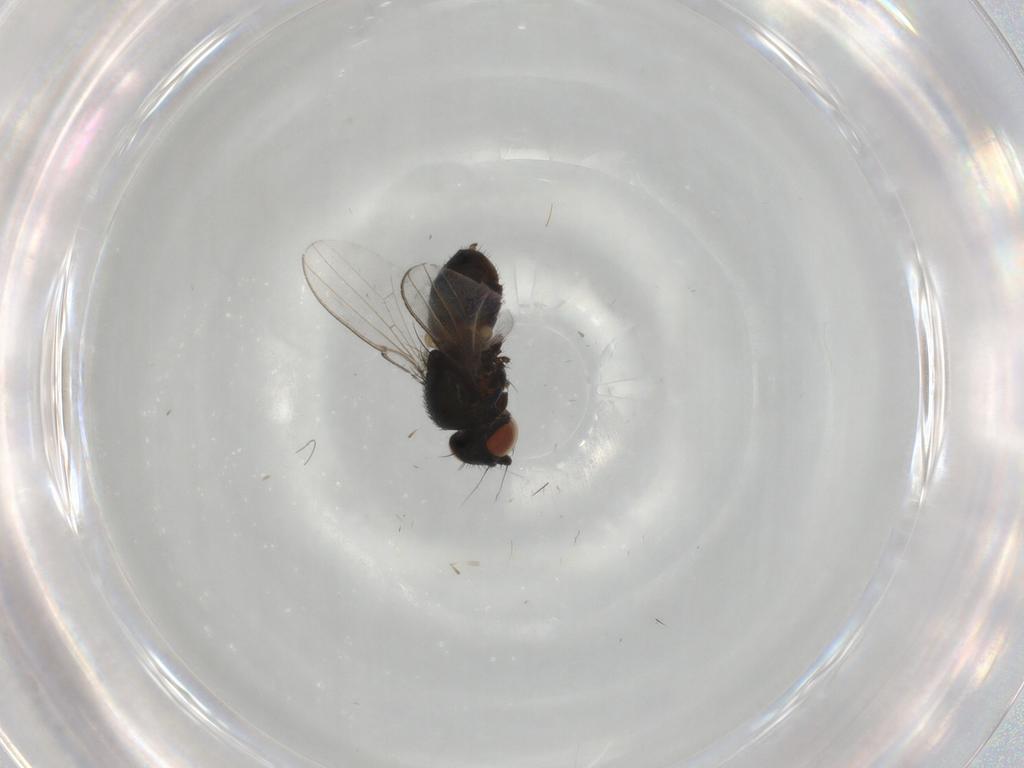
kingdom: Animalia
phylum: Arthropoda
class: Insecta
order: Diptera
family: Milichiidae
